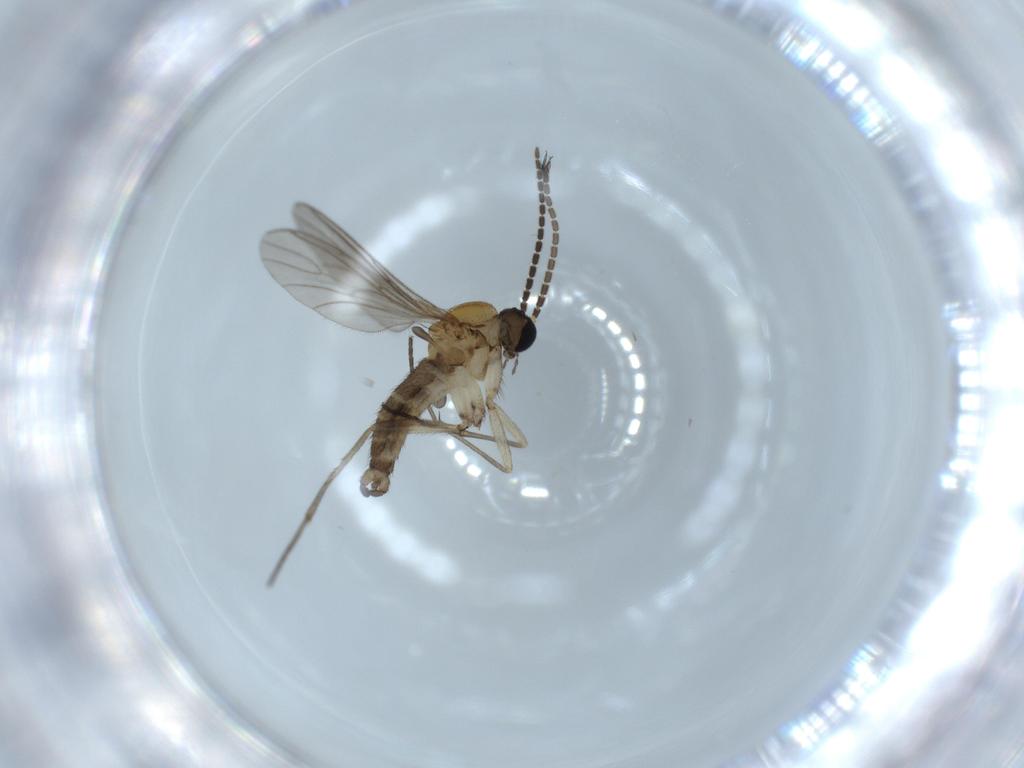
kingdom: Animalia
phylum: Arthropoda
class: Insecta
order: Diptera
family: Sciaridae
